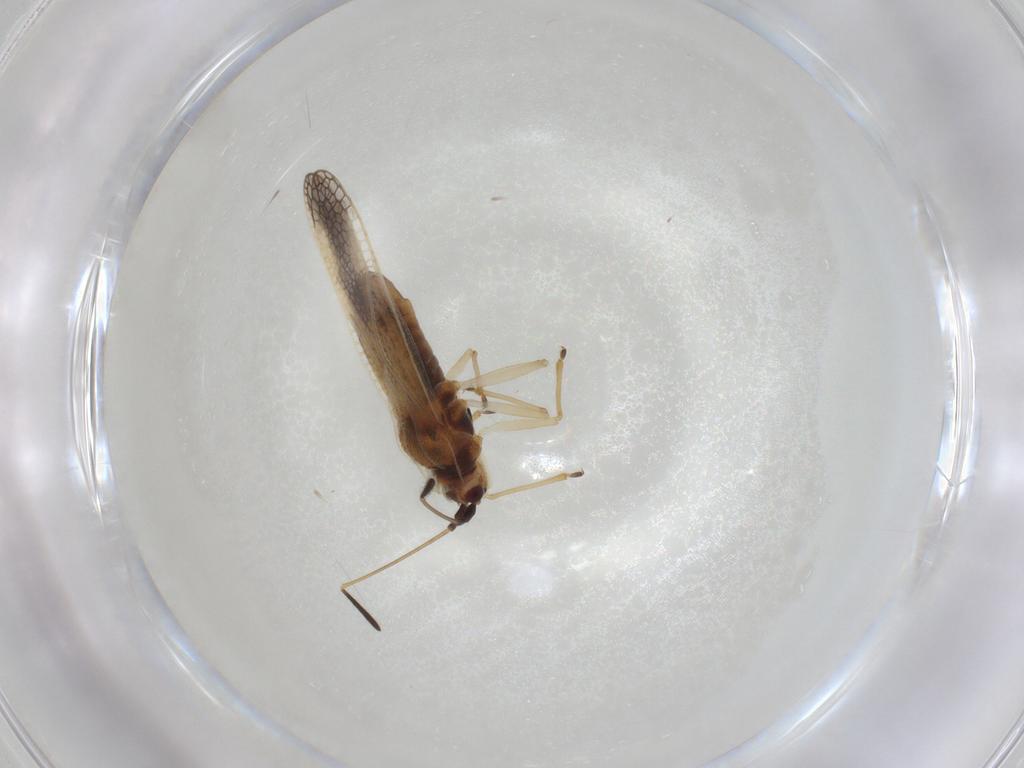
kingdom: Animalia
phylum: Arthropoda
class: Insecta
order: Hemiptera
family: Tingidae
